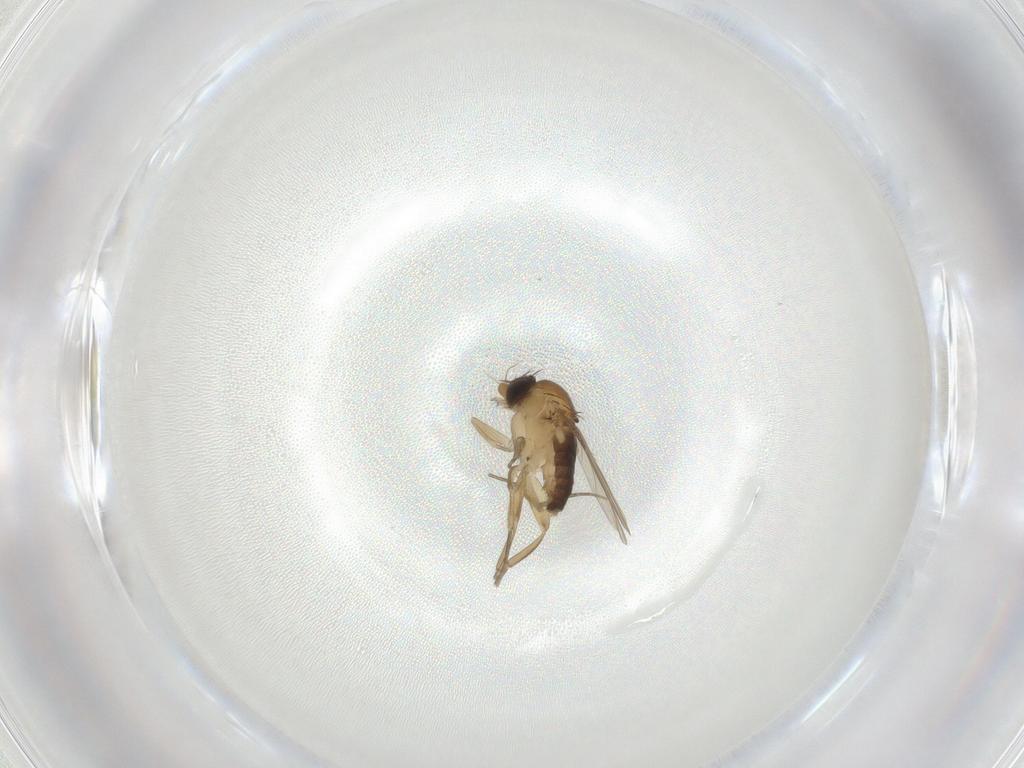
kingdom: Animalia
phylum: Arthropoda
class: Insecta
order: Diptera
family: Phoridae
